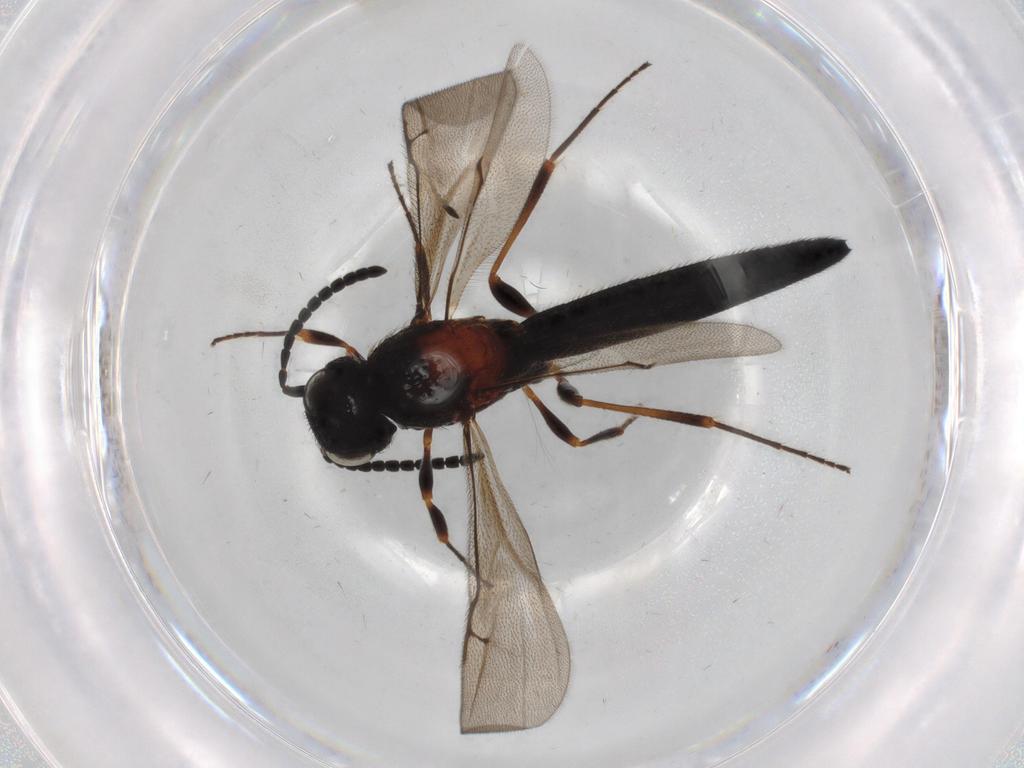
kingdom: Animalia
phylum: Arthropoda
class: Insecta
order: Hymenoptera
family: Scelionidae
